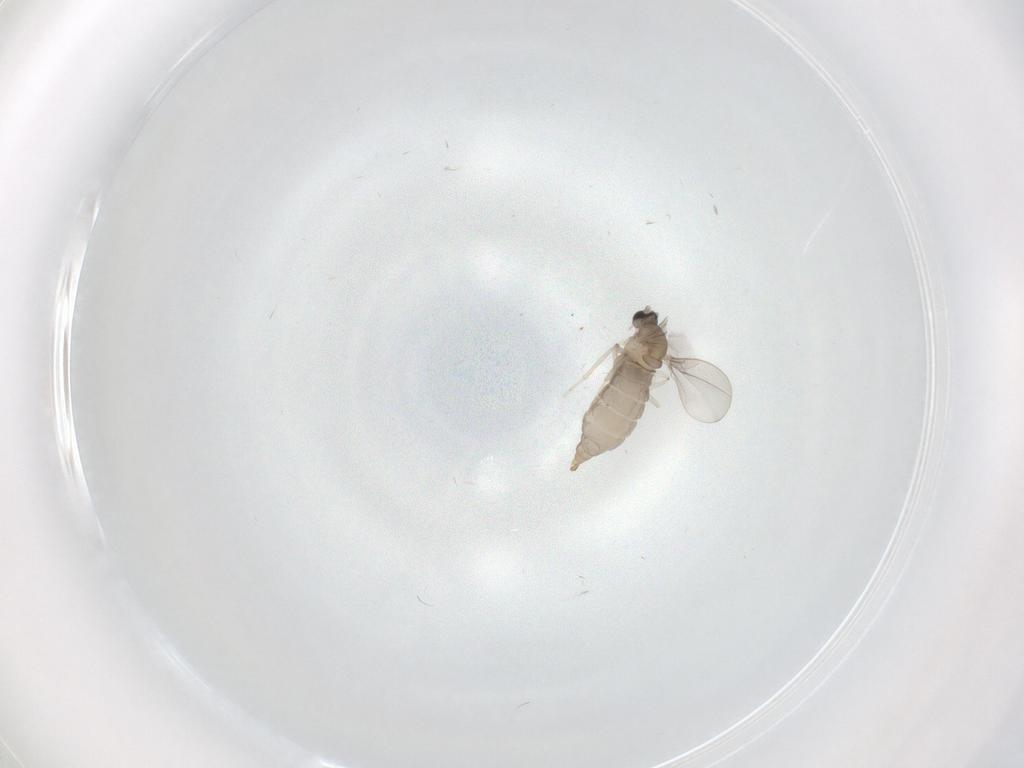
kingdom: Animalia
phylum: Arthropoda
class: Insecta
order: Diptera
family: Cecidomyiidae
